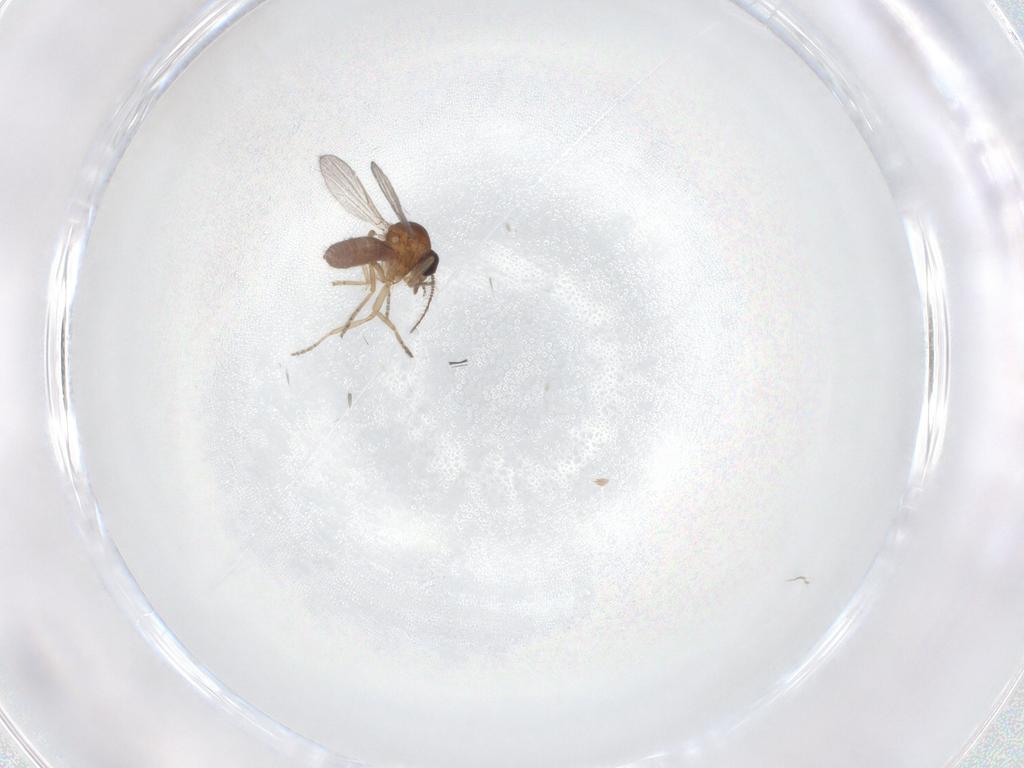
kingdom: Animalia
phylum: Arthropoda
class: Insecta
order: Diptera
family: Ceratopogonidae
